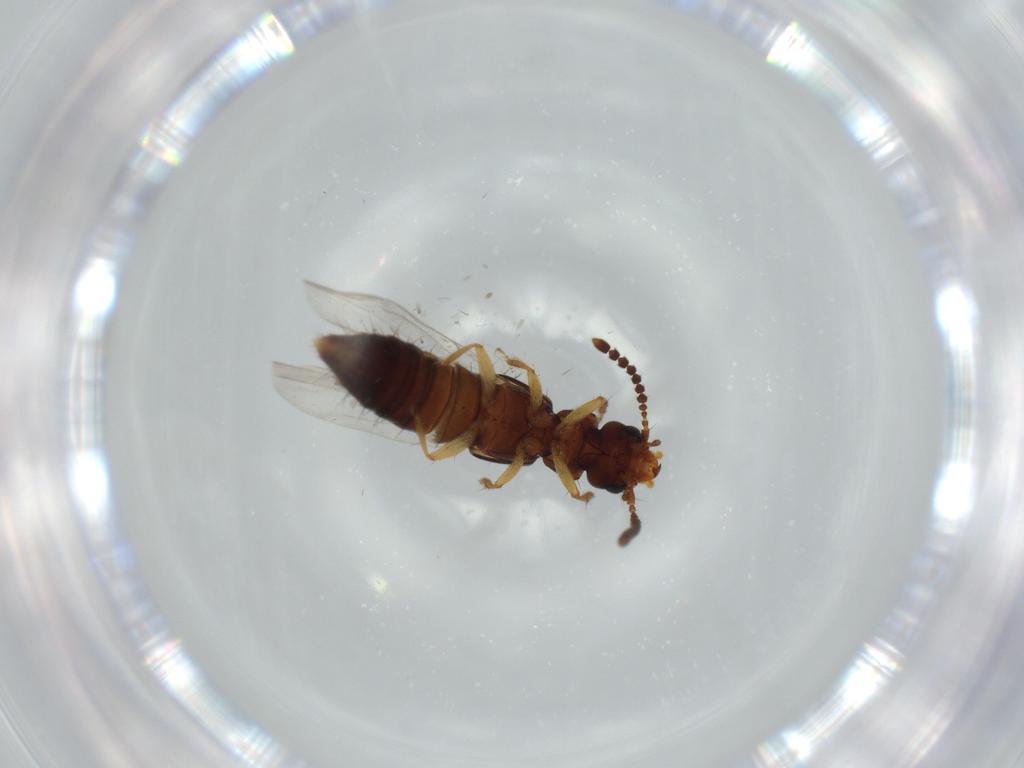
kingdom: Animalia
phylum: Arthropoda
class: Insecta
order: Coleoptera
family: Staphylinidae
